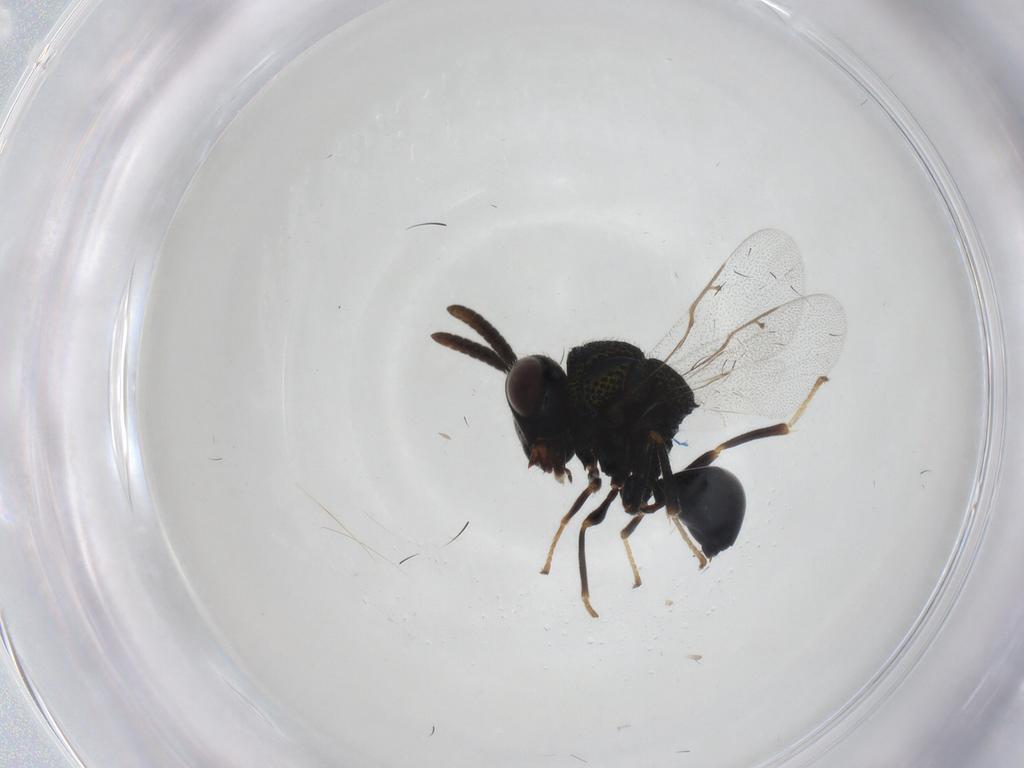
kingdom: Animalia
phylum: Arthropoda
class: Insecta
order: Hymenoptera
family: Perilampidae
